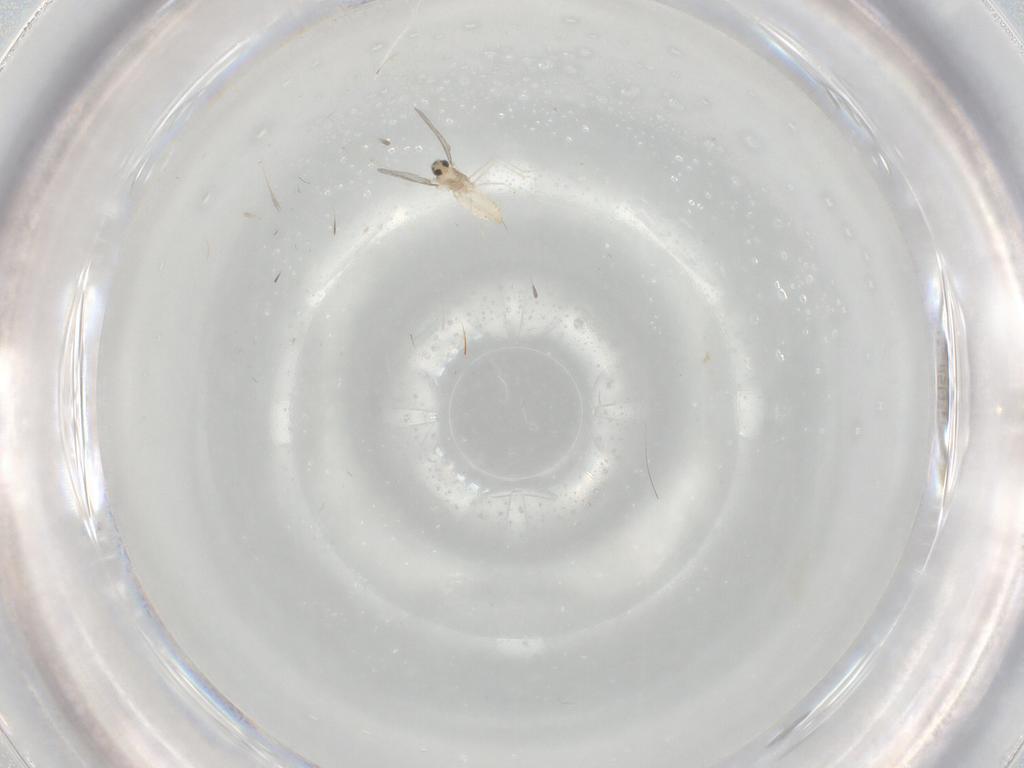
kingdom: Animalia
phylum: Arthropoda
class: Insecta
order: Diptera
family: Cecidomyiidae
